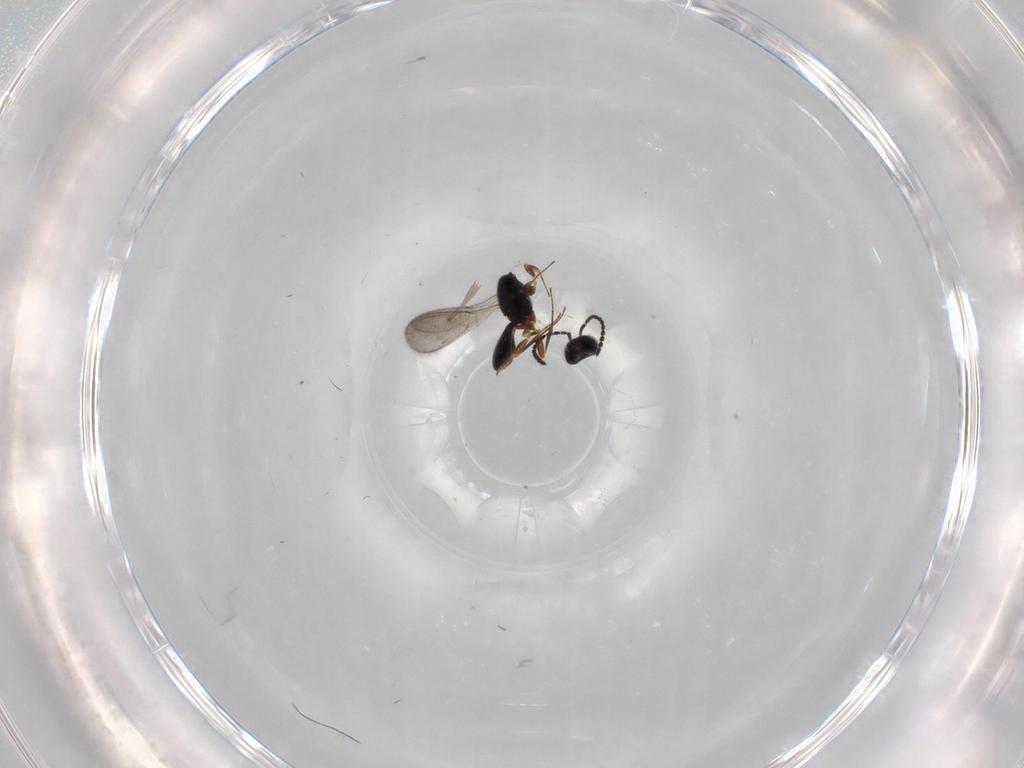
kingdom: Animalia
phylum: Arthropoda
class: Insecta
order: Hymenoptera
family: Scelionidae
